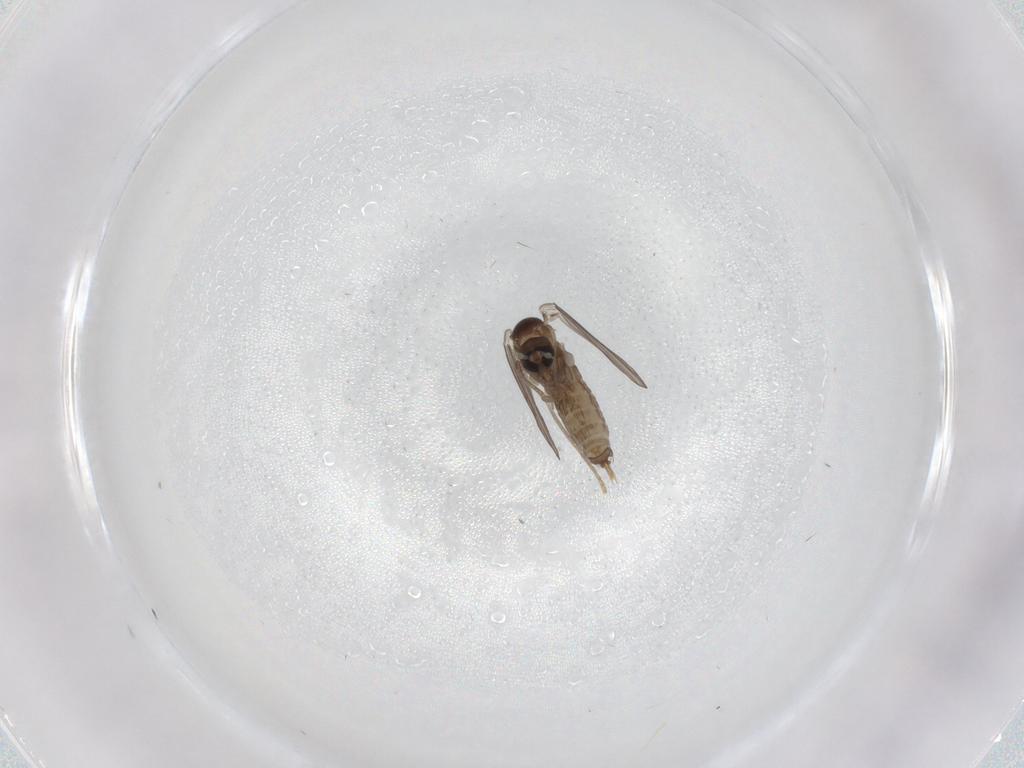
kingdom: Animalia
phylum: Arthropoda
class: Insecta
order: Diptera
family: Psychodidae
